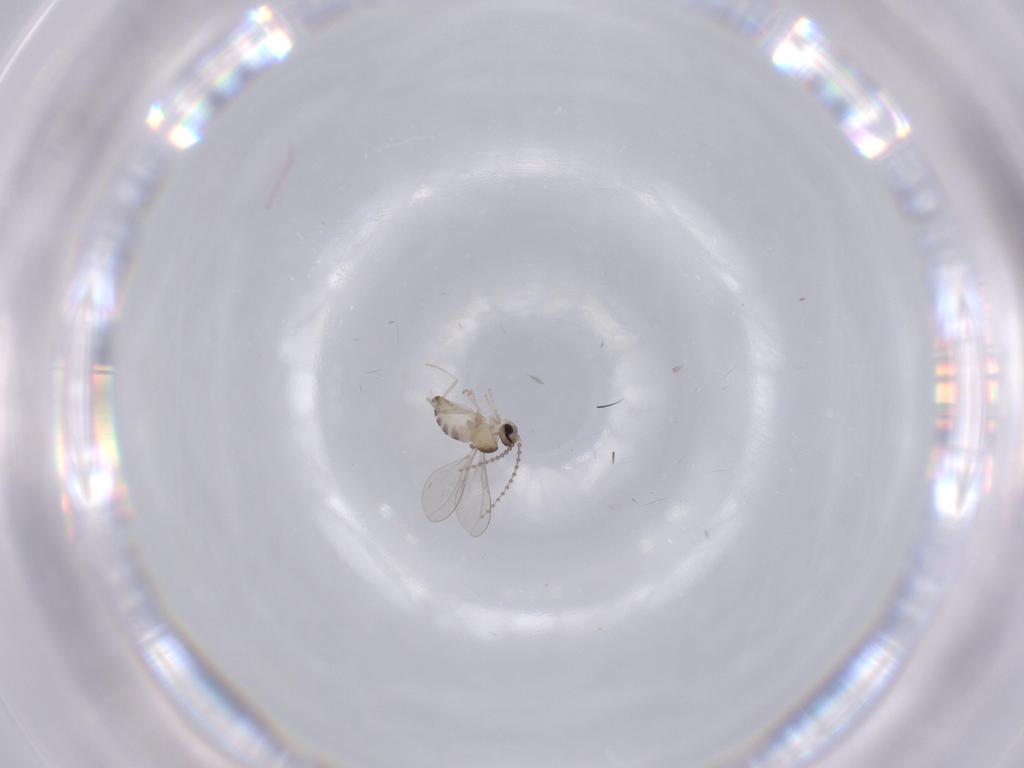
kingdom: Animalia
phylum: Arthropoda
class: Insecta
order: Diptera
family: Cecidomyiidae
